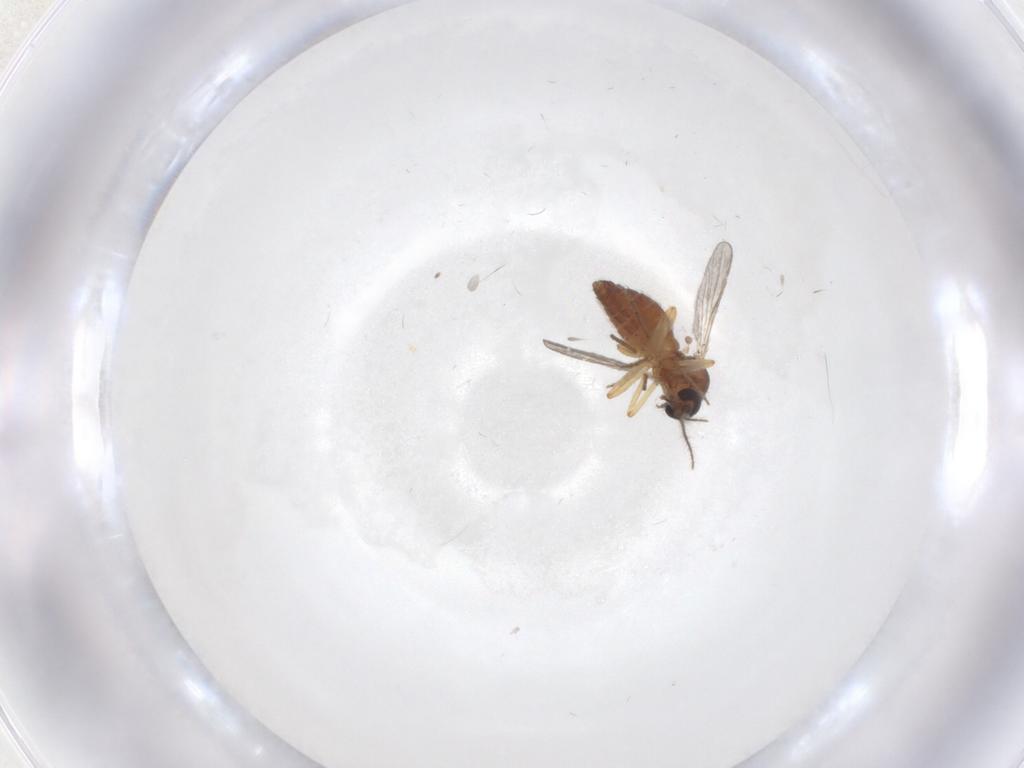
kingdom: Animalia
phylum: Arthropoda
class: Insecta
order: Diptera
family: Ceratopogonidae
